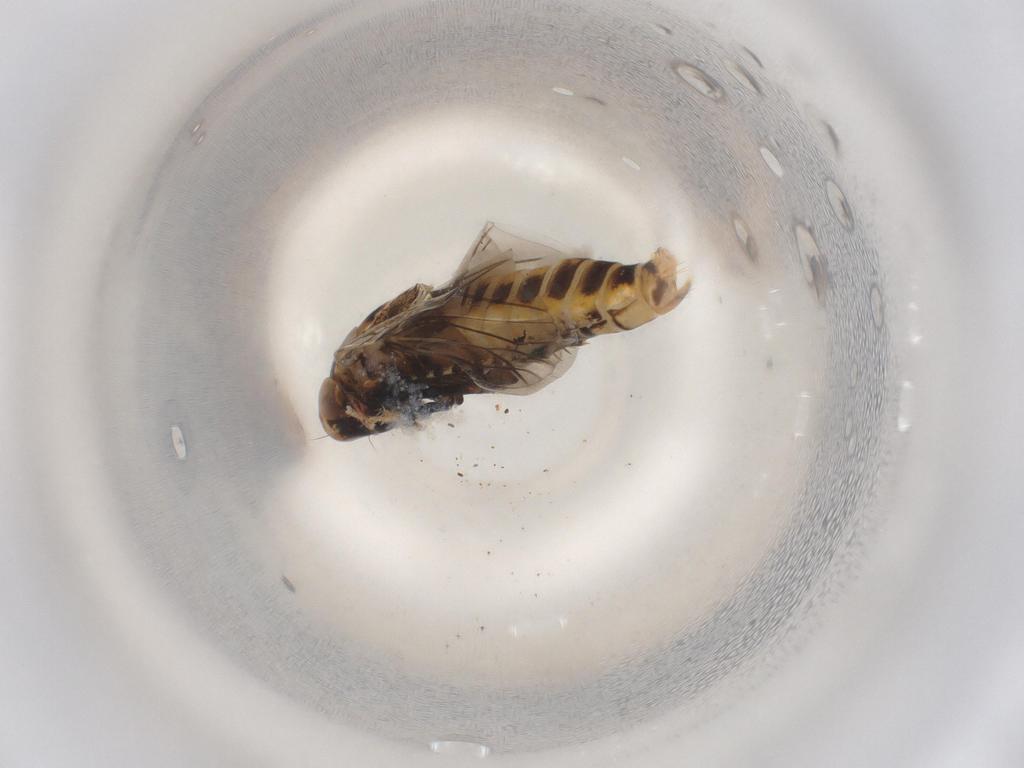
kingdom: Animalia
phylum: Arthropoda
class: Insecta
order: Hemiptera
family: Cicadellidae
